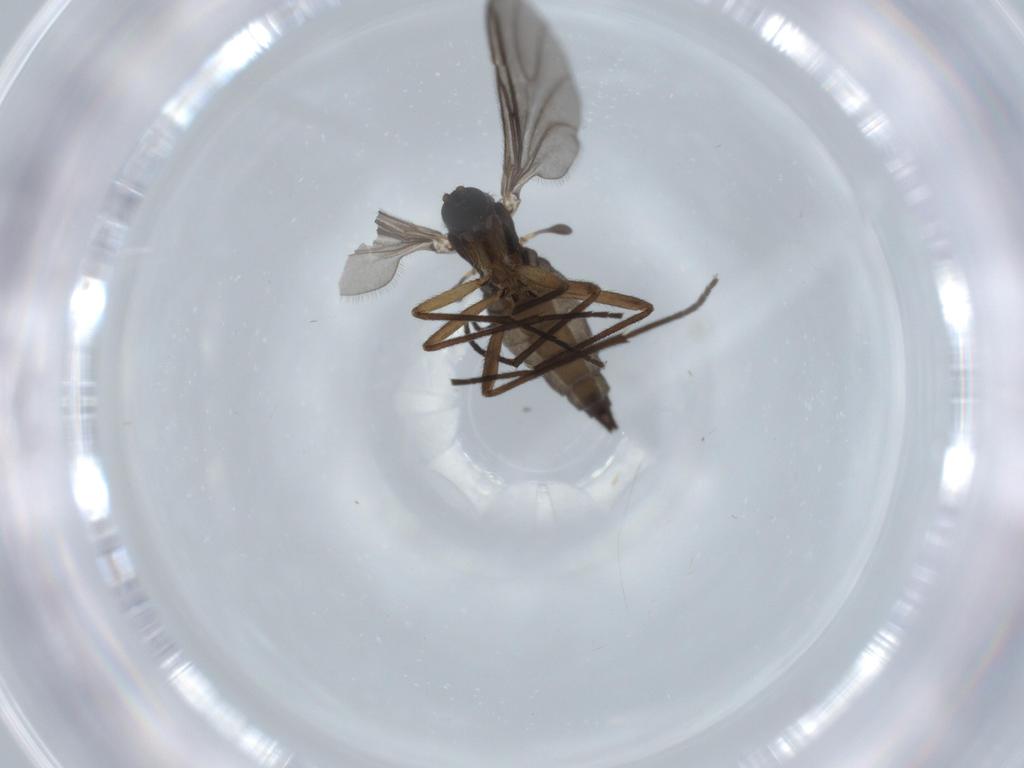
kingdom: Animalia
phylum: Arthropoda
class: Insecta
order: Diptera
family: Sciaridae
